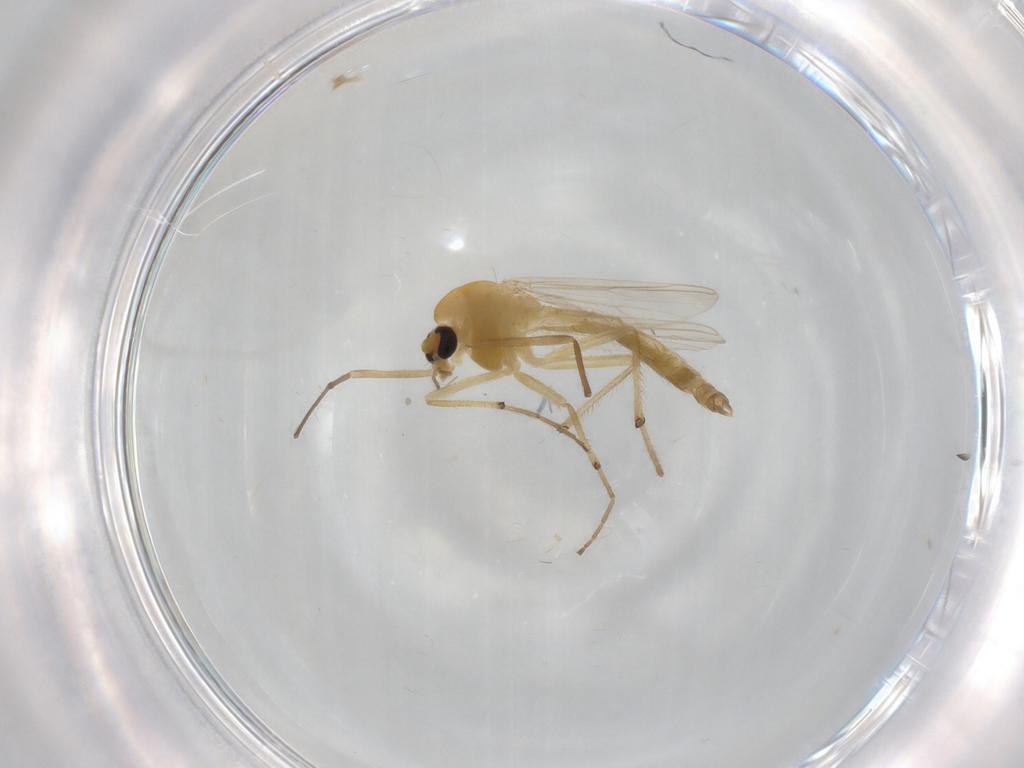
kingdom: Animalia
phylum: Arthropoda
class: Insecta
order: Diptera
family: Chironomidae
